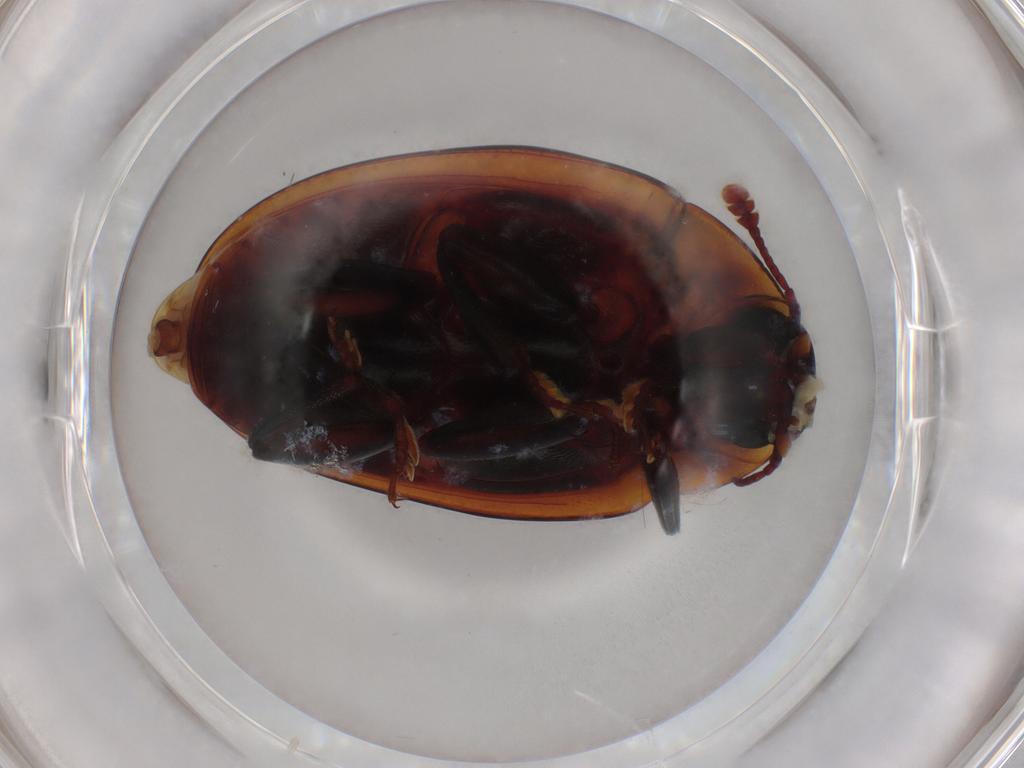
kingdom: Animalia
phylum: Arthropoda
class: Insecta
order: Coleoptera
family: Zopheridae
